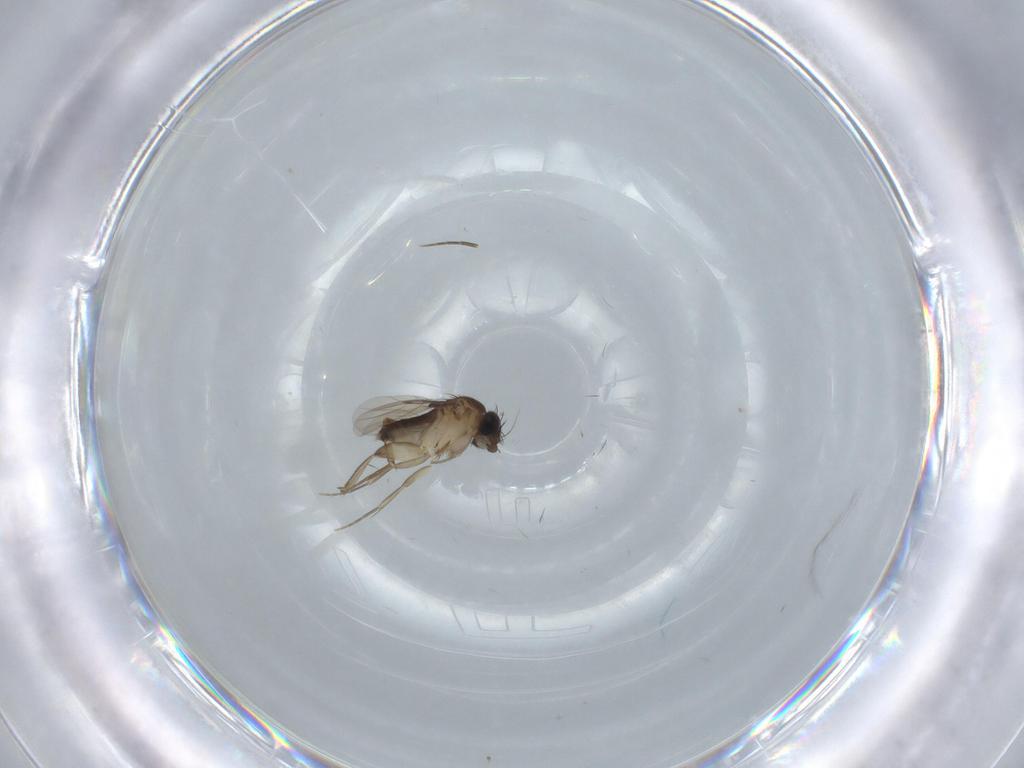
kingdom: Animalia
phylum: Arthropoda
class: Insecta
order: Diptera
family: Phoridae
